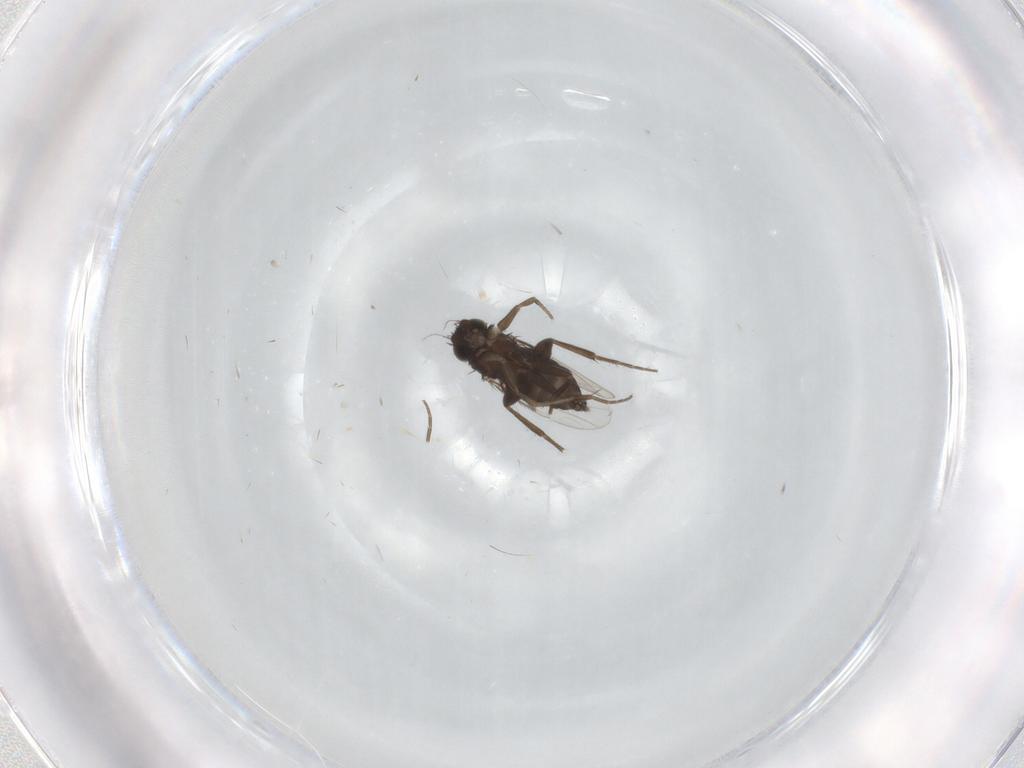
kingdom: Animalia
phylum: Arthropoda
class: Insecta
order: Diptera
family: Phoridae
